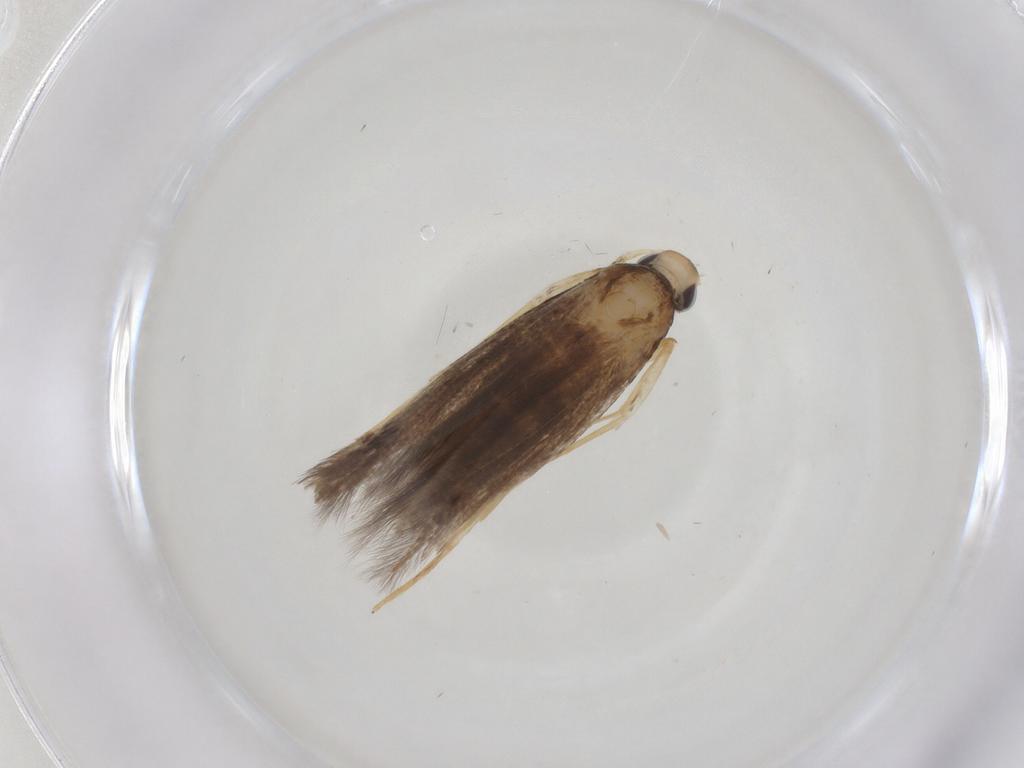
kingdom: Animalia
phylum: Arthropoda
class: Insecta
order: Lepidoptera
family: Cosmopterigidae
